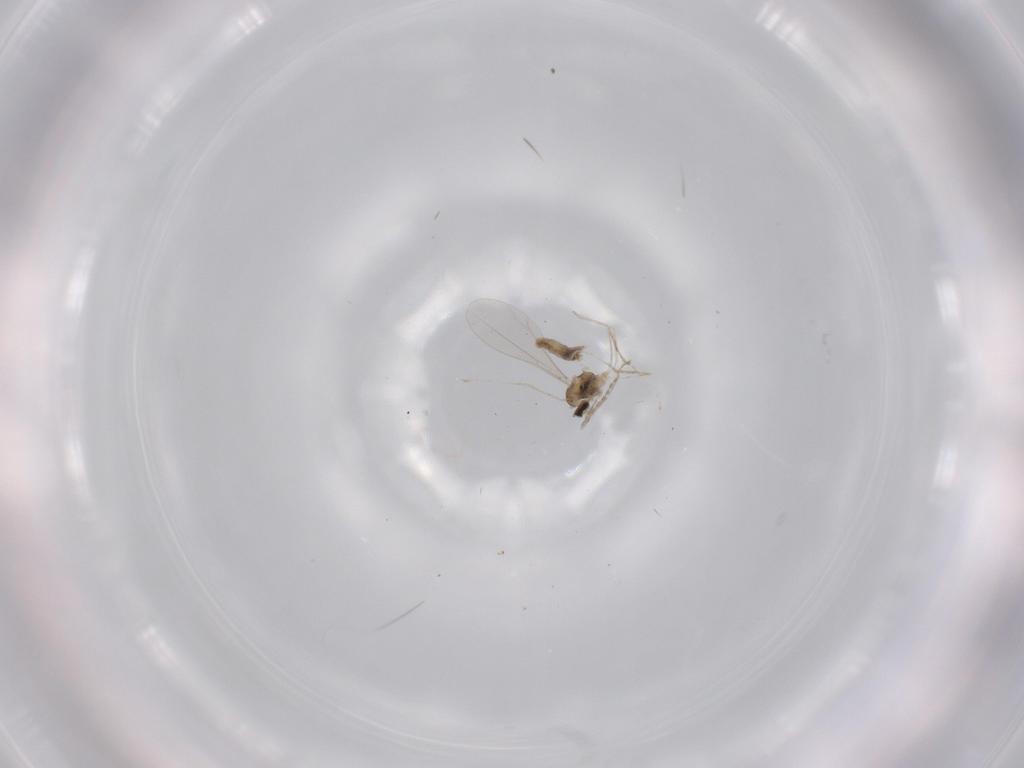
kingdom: Animalia
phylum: Arthropoda
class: Insecta
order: Diptera
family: Cecidomyiidae
